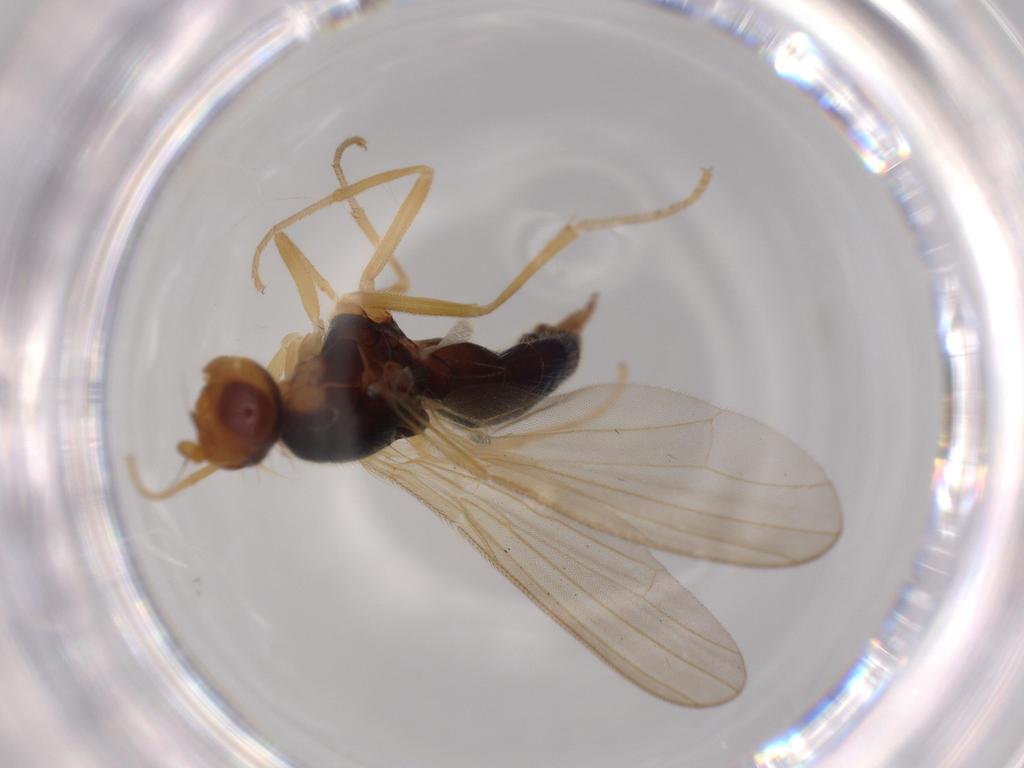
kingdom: Animalia
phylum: Arthropoda
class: Insecta
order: Diptera
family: Psilidae
